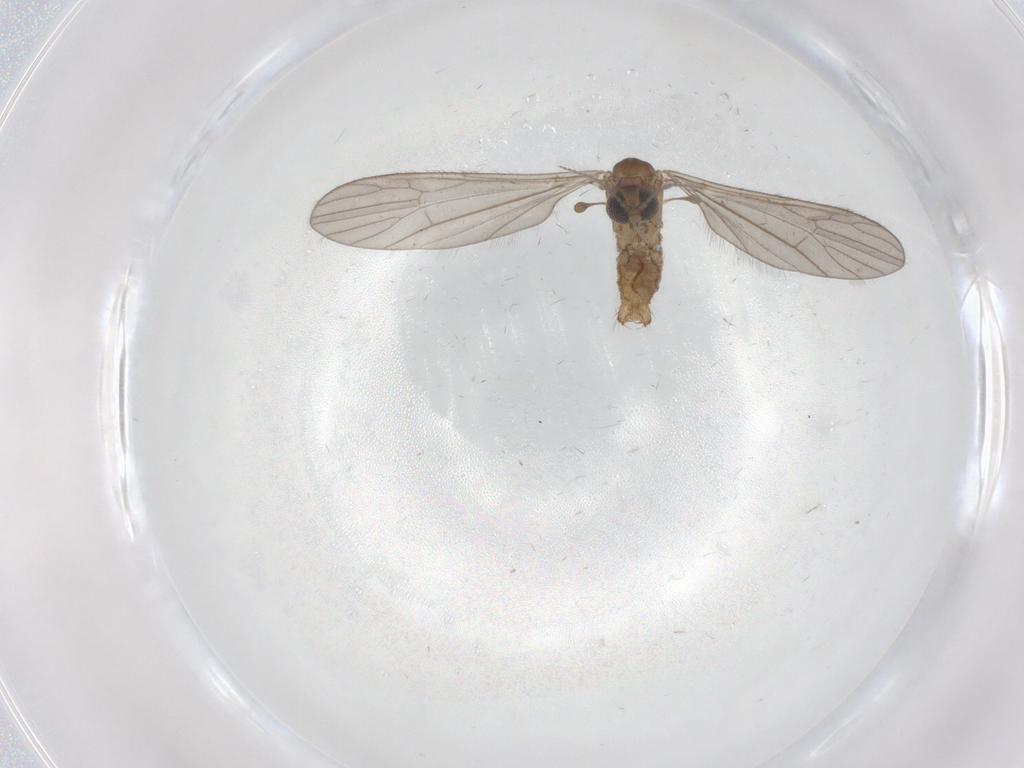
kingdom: Animalia
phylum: Arthropoda
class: Insecta
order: Diptera
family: Limoniidae
